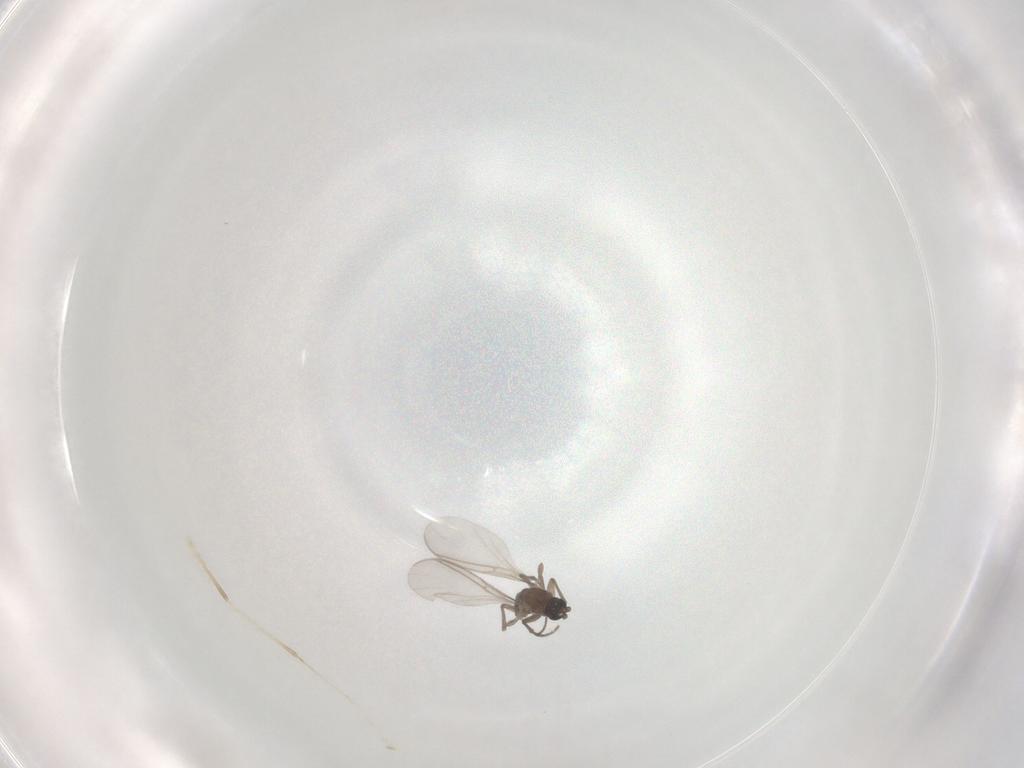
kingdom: Animalia
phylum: Arthropoda
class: Insecta
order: Diptera
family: Sciaridae
